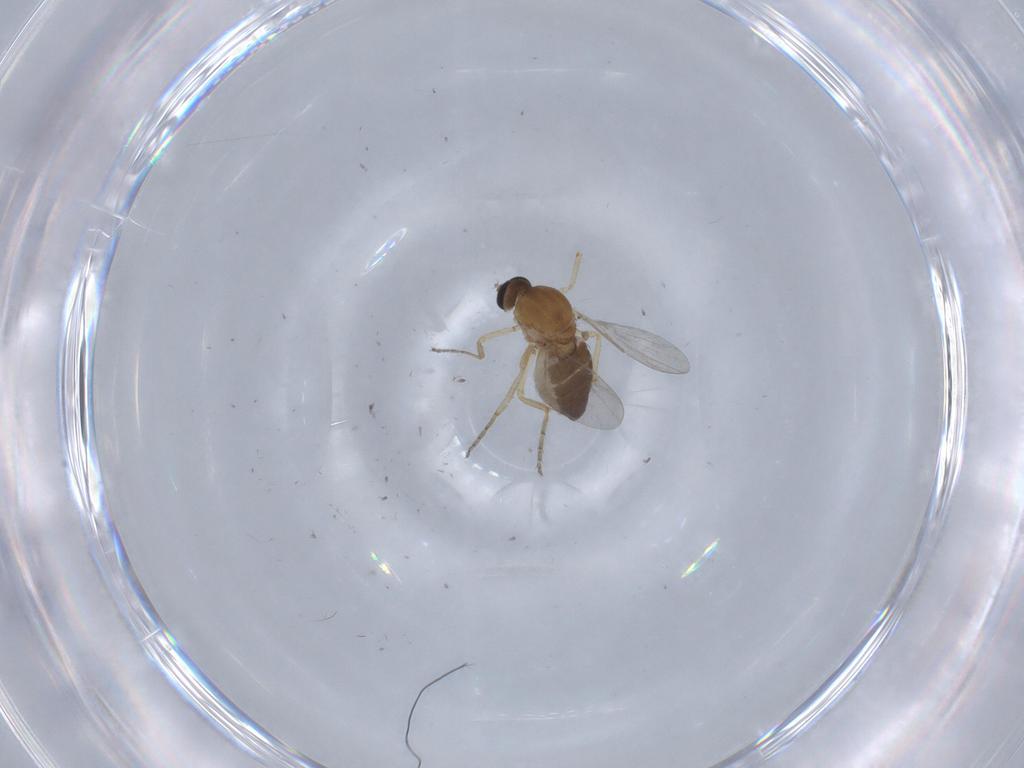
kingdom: Animalia
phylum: Arthropoda
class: Insecta
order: Diptera
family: Ceratopogonidae
